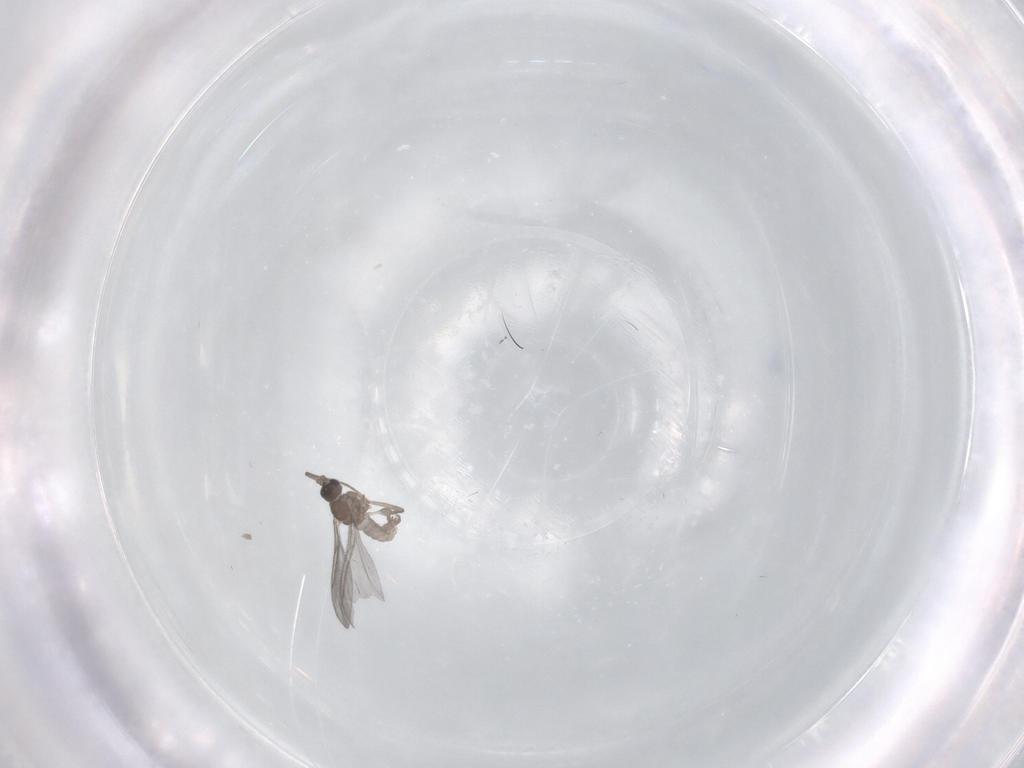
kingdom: Animalia
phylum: Arthropoda
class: Insecta
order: Diptera
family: Sciaridae
